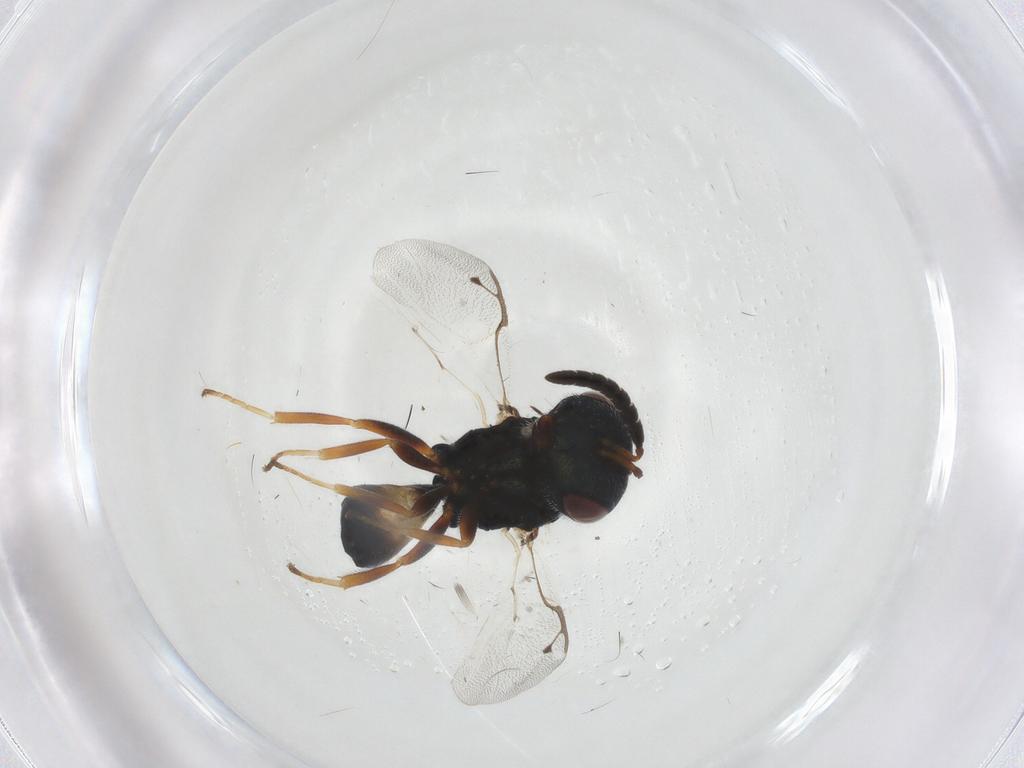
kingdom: Animalia
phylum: Arthropoda
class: Insecta
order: Hymenoptera
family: Pteromalidae
